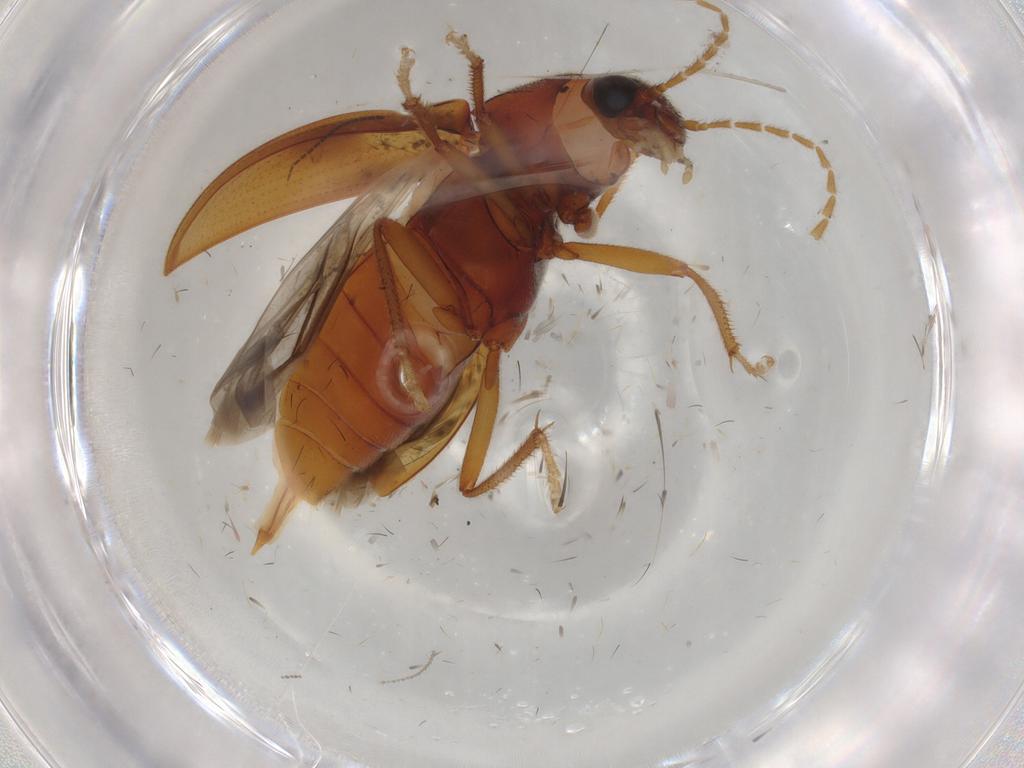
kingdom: Animalia
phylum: Arthropoda
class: Insecta
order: Coleoptera
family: Ptilodactylidae
